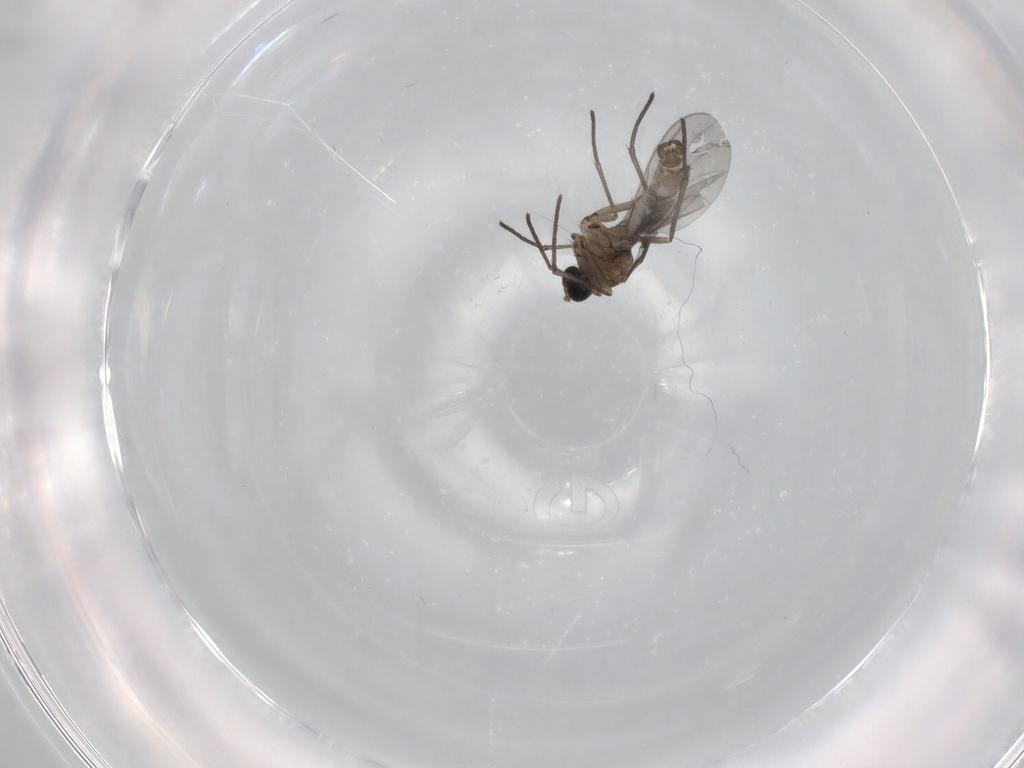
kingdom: Animalia
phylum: Arthropoda
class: Insecta
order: Diptera
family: Sciaridae
